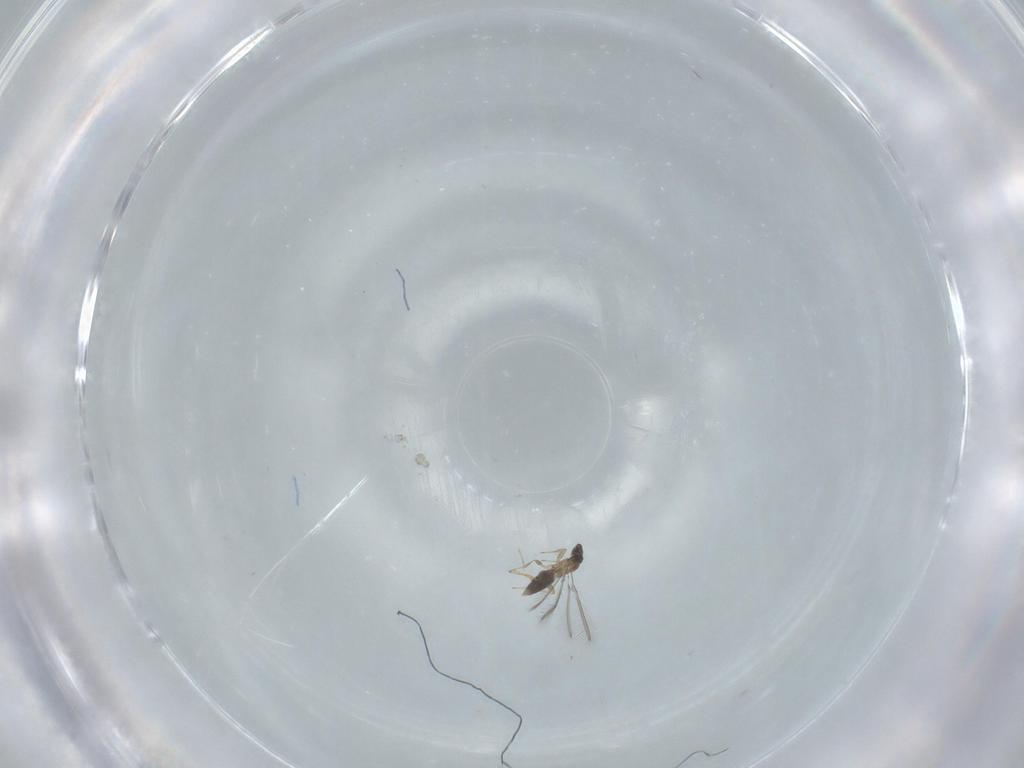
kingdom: Animalia
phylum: Arthropoda
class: Insecta
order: Hymenoptera
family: Mymaridae
